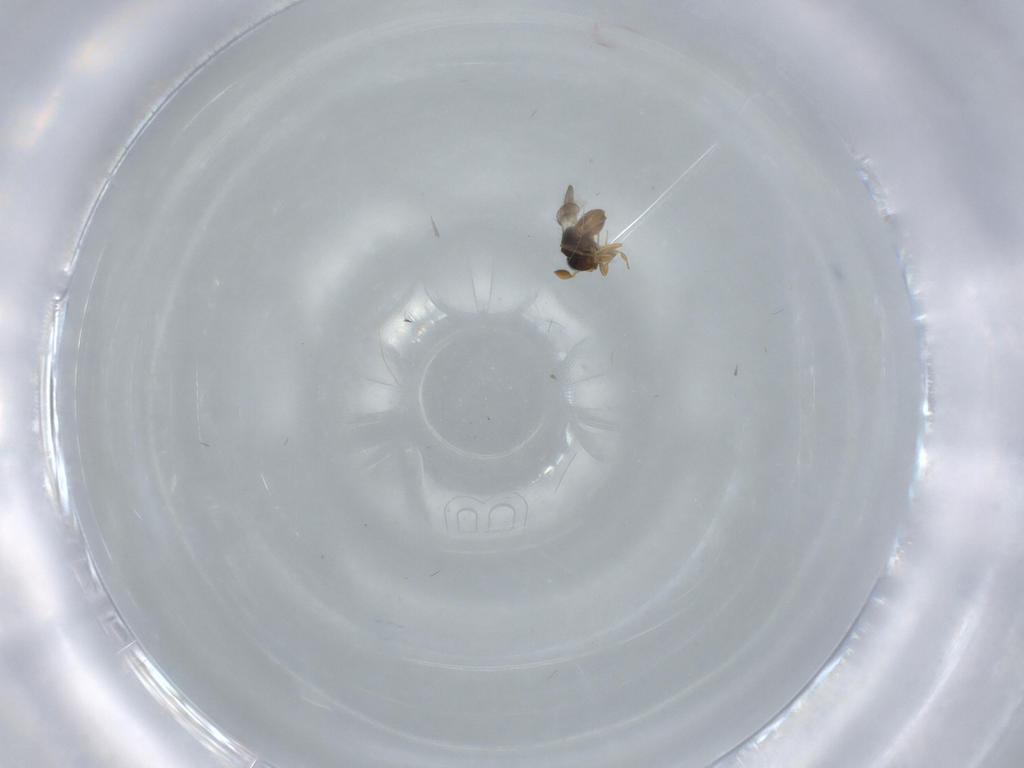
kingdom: Animalia
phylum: Arthropoda
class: Insecta
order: Hymenoptera
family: Scelionidae
